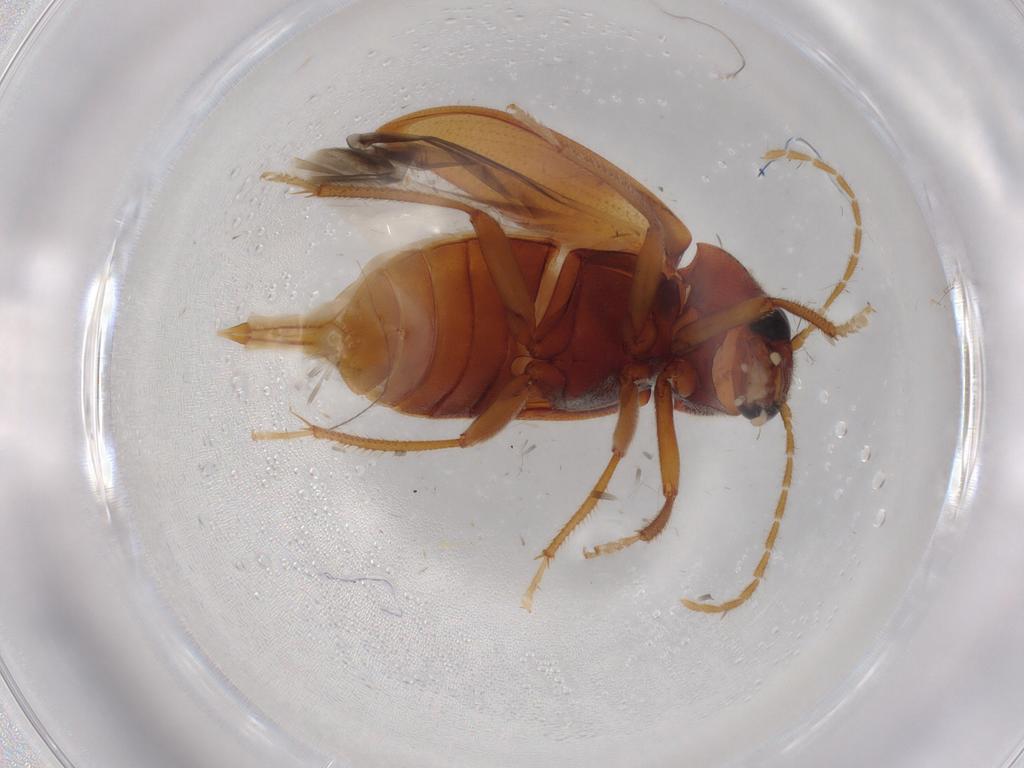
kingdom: Animalia
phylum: Arthropoda
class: Insecta
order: Coleoptera
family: Ptilodactylidae
